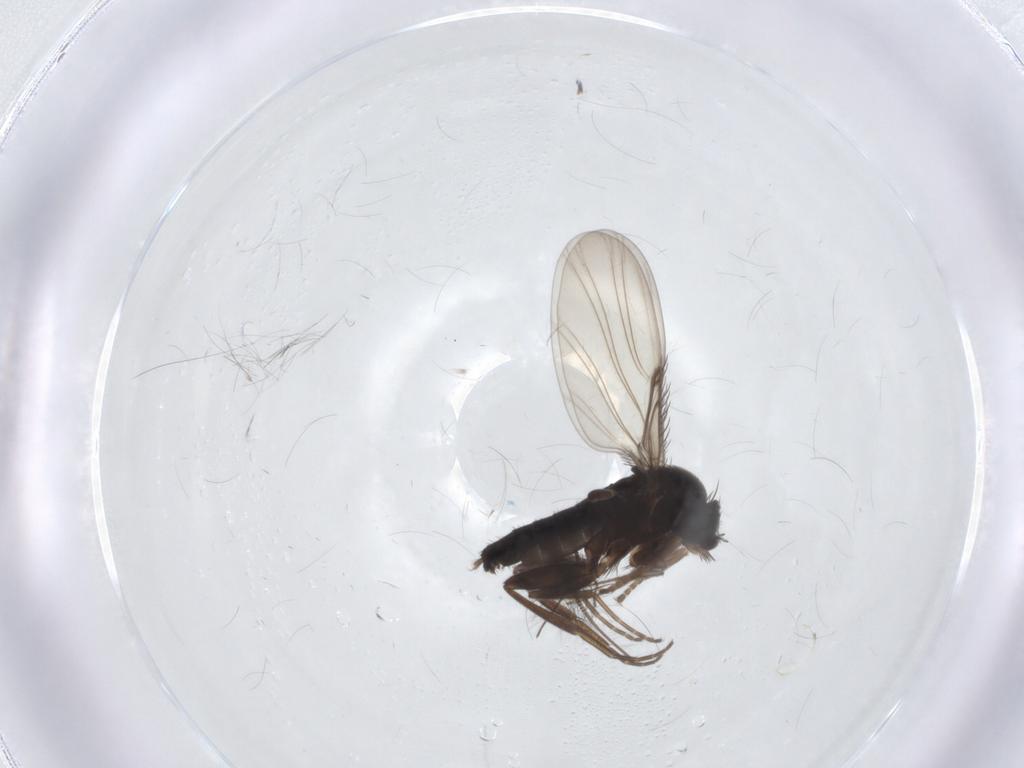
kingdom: Animalia
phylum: Arthropoda
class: Insecta
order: Diptera
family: Phoridae
